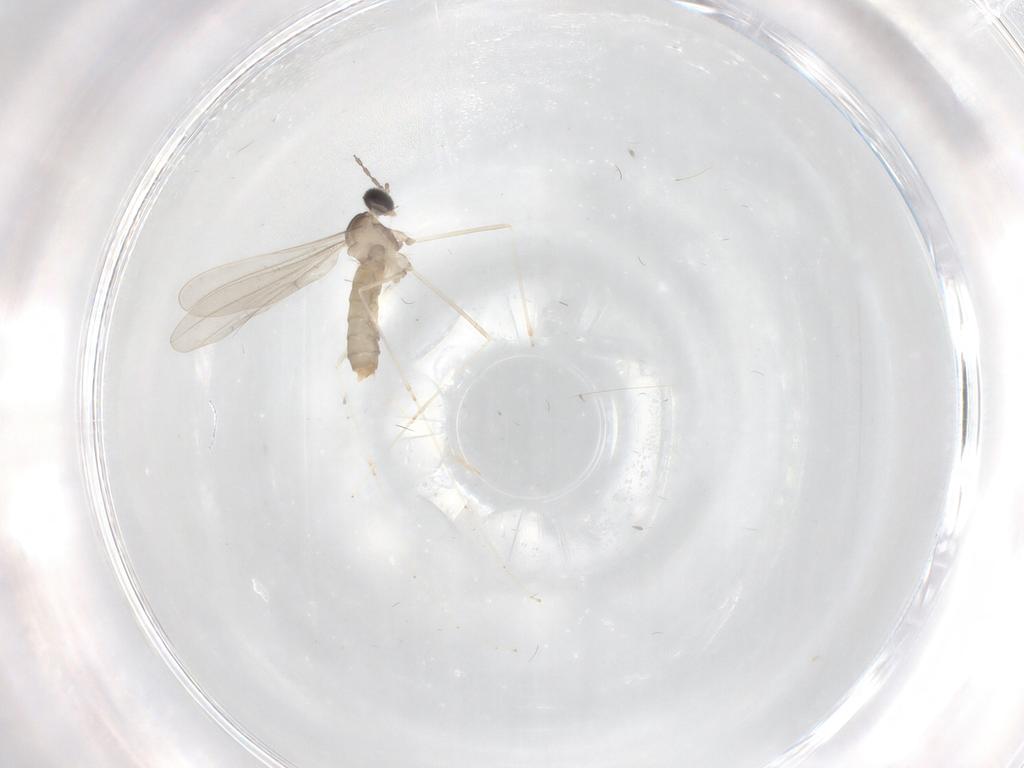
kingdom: Animalia
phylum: Arthropoda
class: Insecta
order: Diptera
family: Cecidomyiidae
